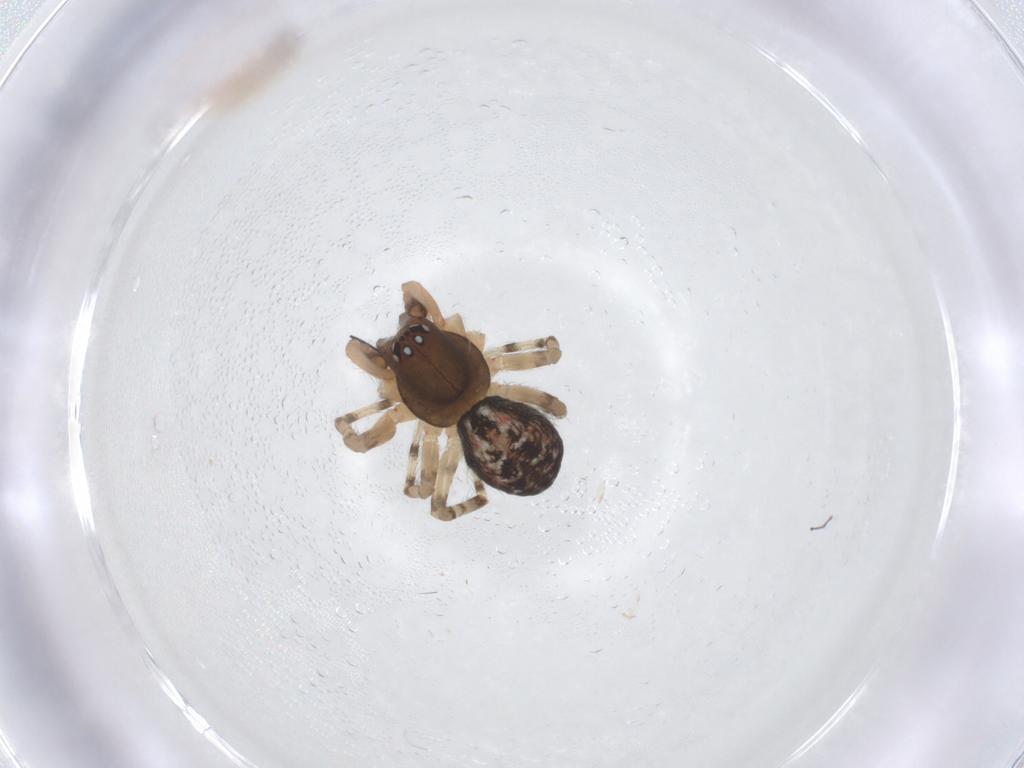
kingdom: Animalia
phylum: Arthropoda
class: Arachnida
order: Araneae
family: Dictynidae
